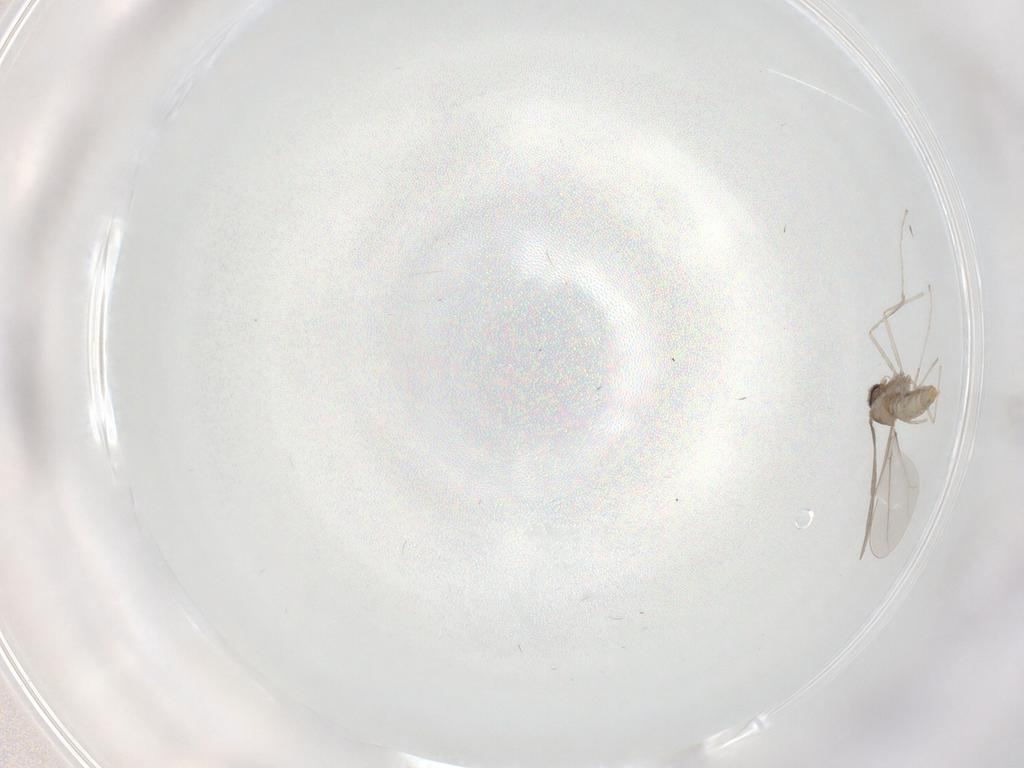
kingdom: Animalia
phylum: Arthropoda
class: Insecta
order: Diptera
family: Cecidomyiidae
